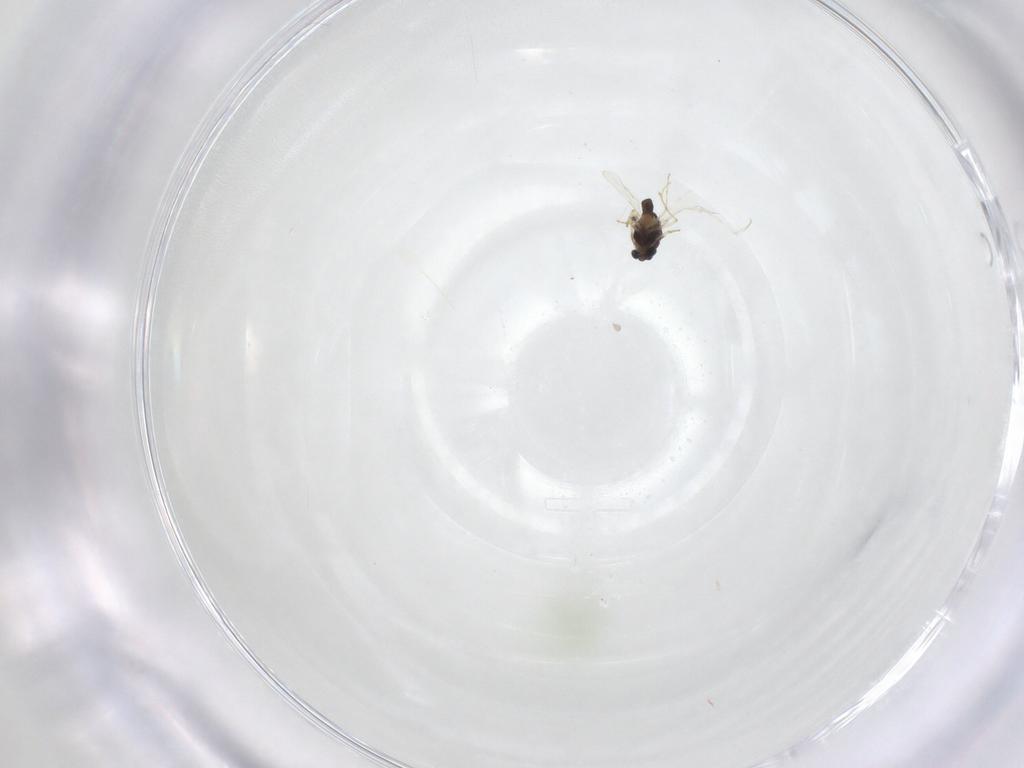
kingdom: Animalia
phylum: Arthropoda
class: Insecta
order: Diptera
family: Chironomidae
